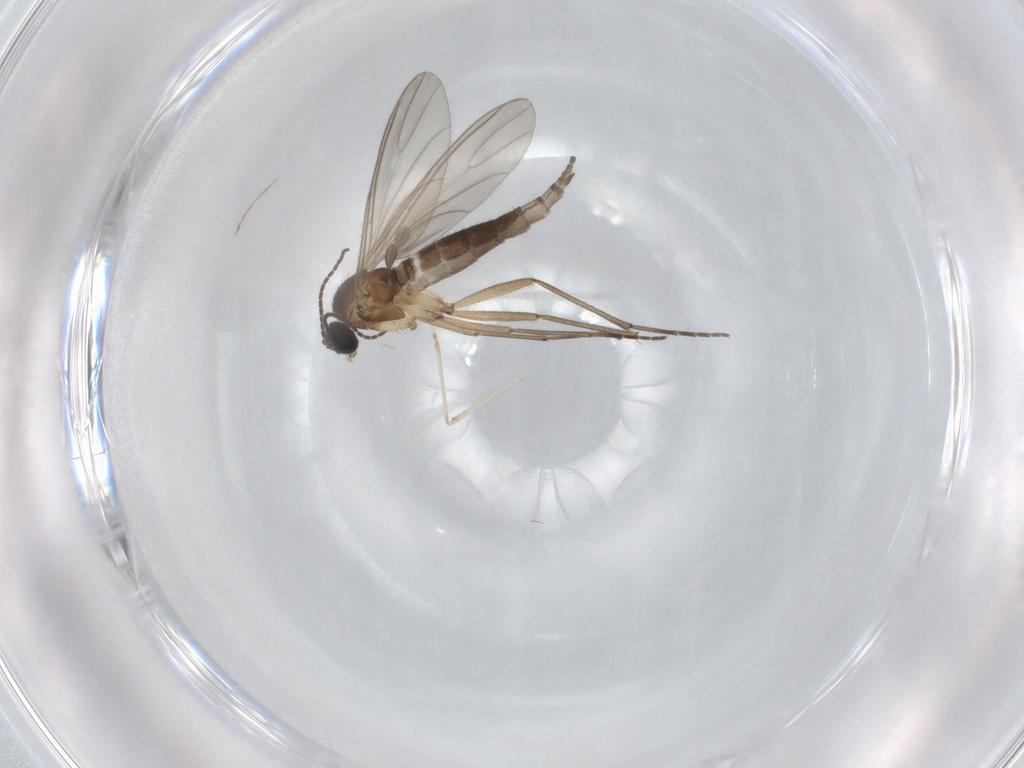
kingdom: Animalia
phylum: Arthropoda
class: Insecta
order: Diptera
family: Sciaridae
